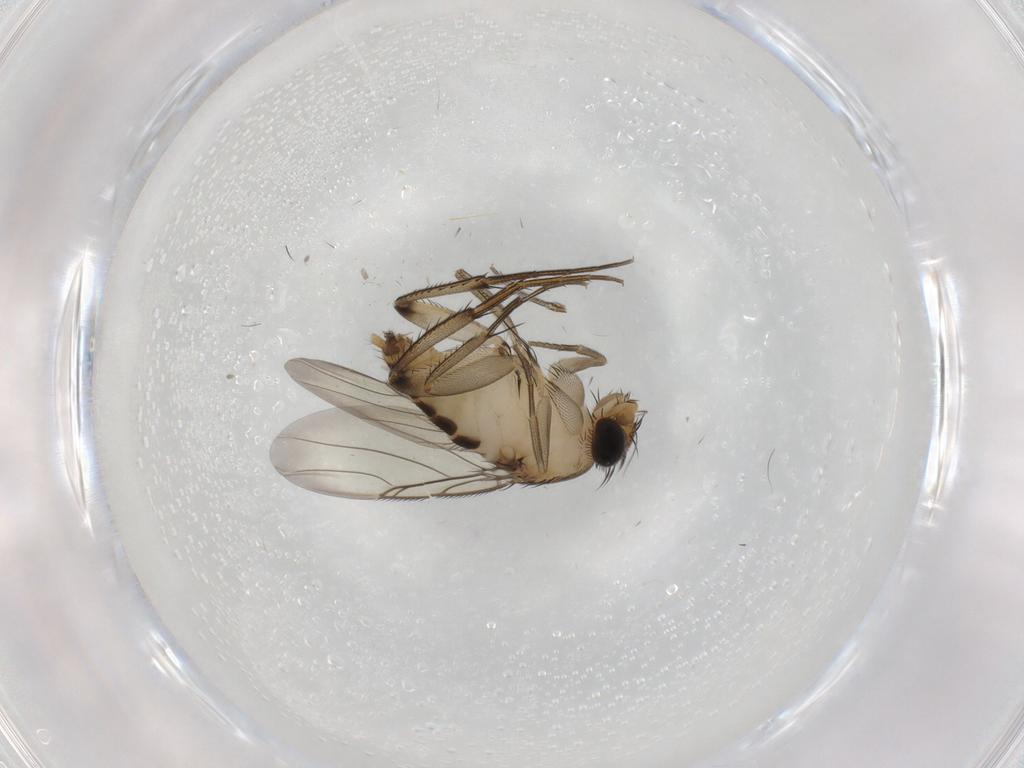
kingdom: Animalia
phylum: Arthropoda
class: Insecta
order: Diptera
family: Phoridae
